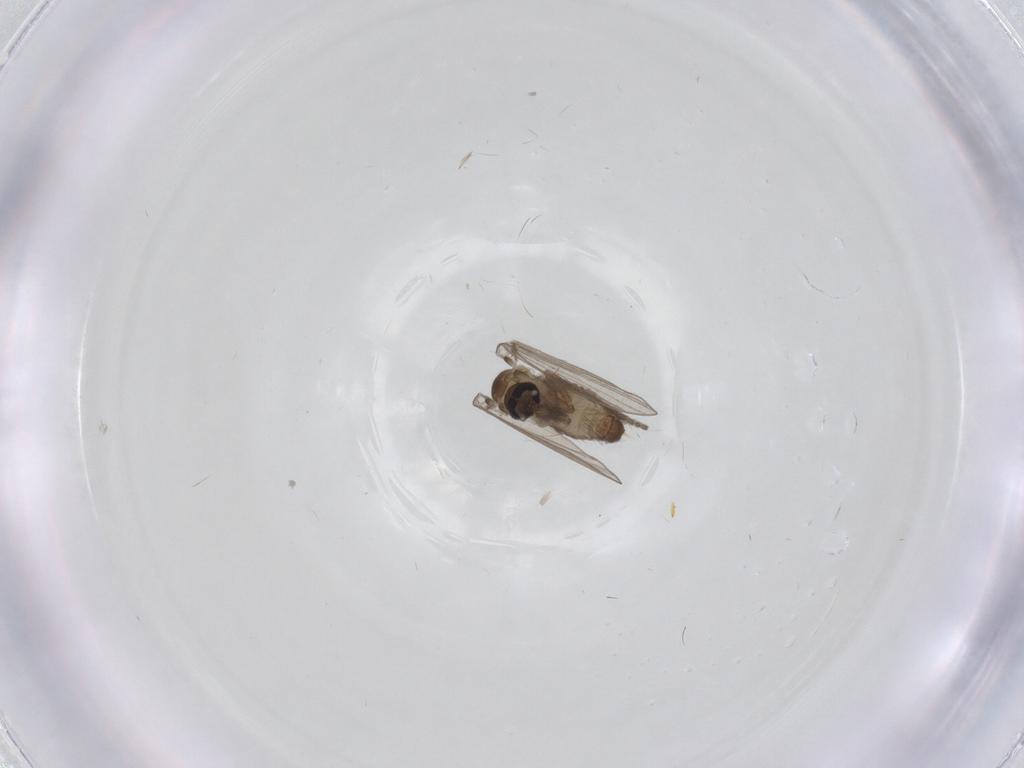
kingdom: Animalia
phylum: Arthropoda
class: Insecta
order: Diptera
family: Psychodidae
